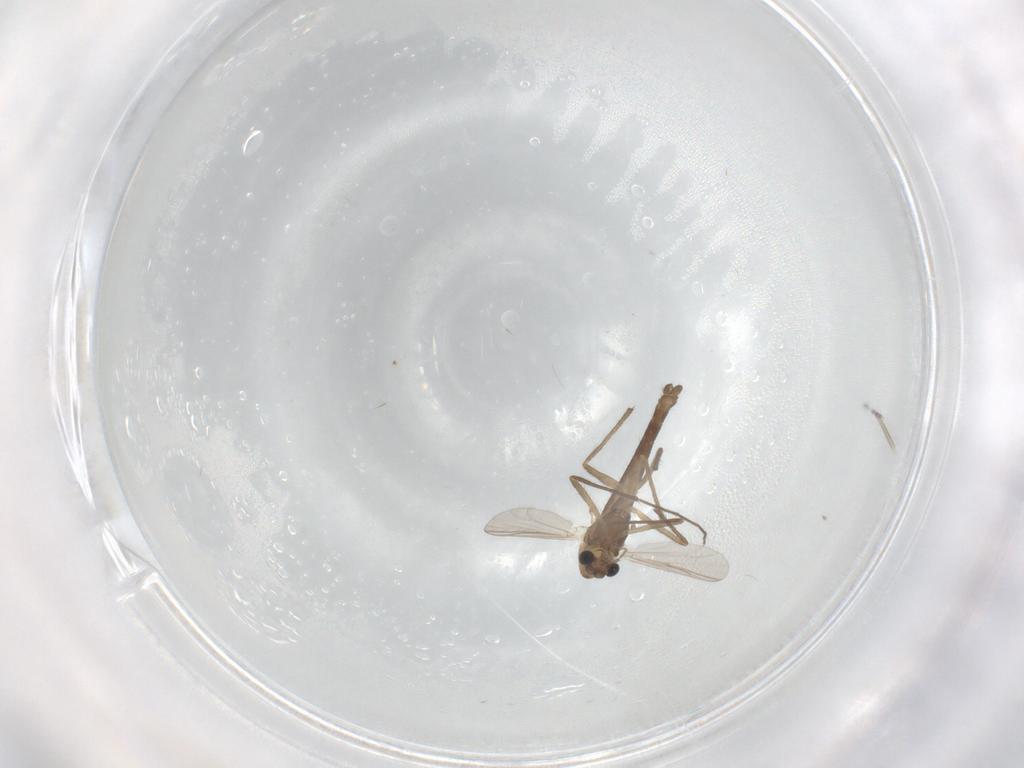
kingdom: Animalia
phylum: Arthropoda
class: Insecta
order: Diptera
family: Chironomidae
